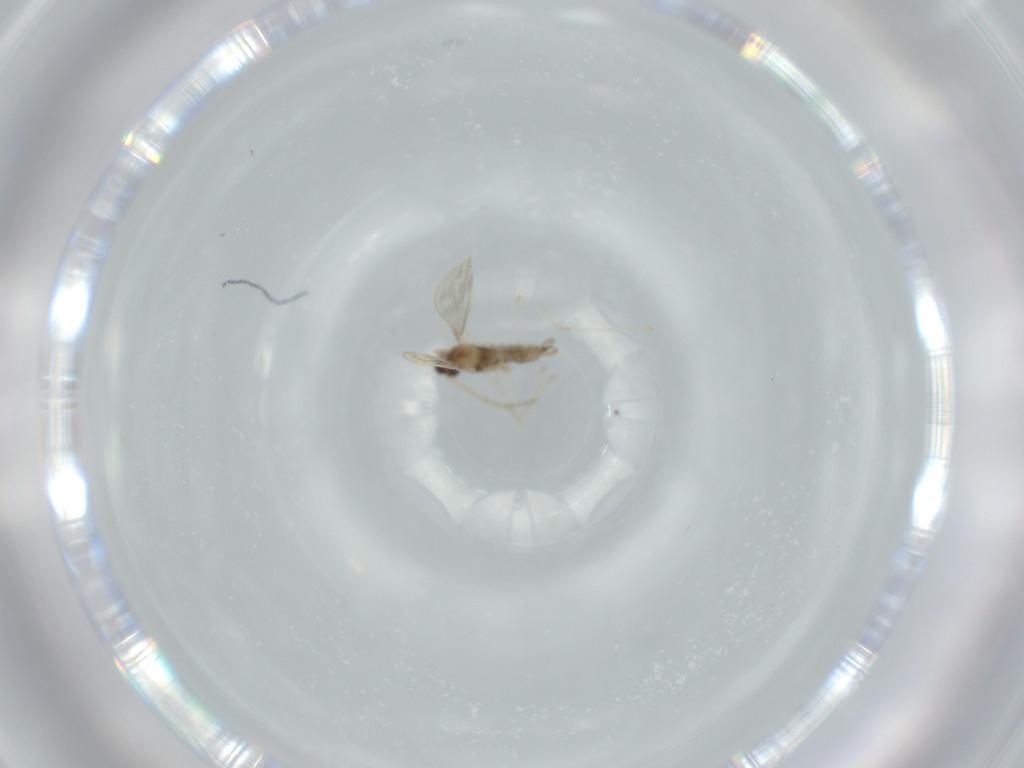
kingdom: Animalia
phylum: Arthropoda
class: Insecta
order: Diptera
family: Cecidomyiidae
